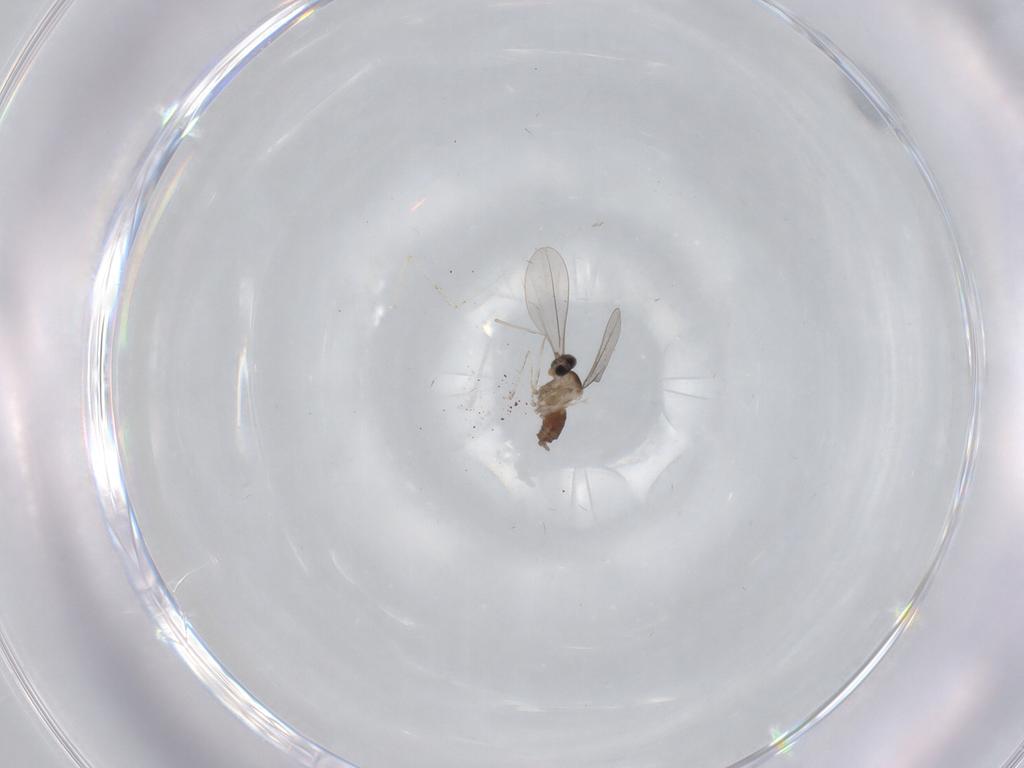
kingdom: Animalia
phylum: Arthropoda
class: Insecta
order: Diptera
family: Cecidomyiidae
